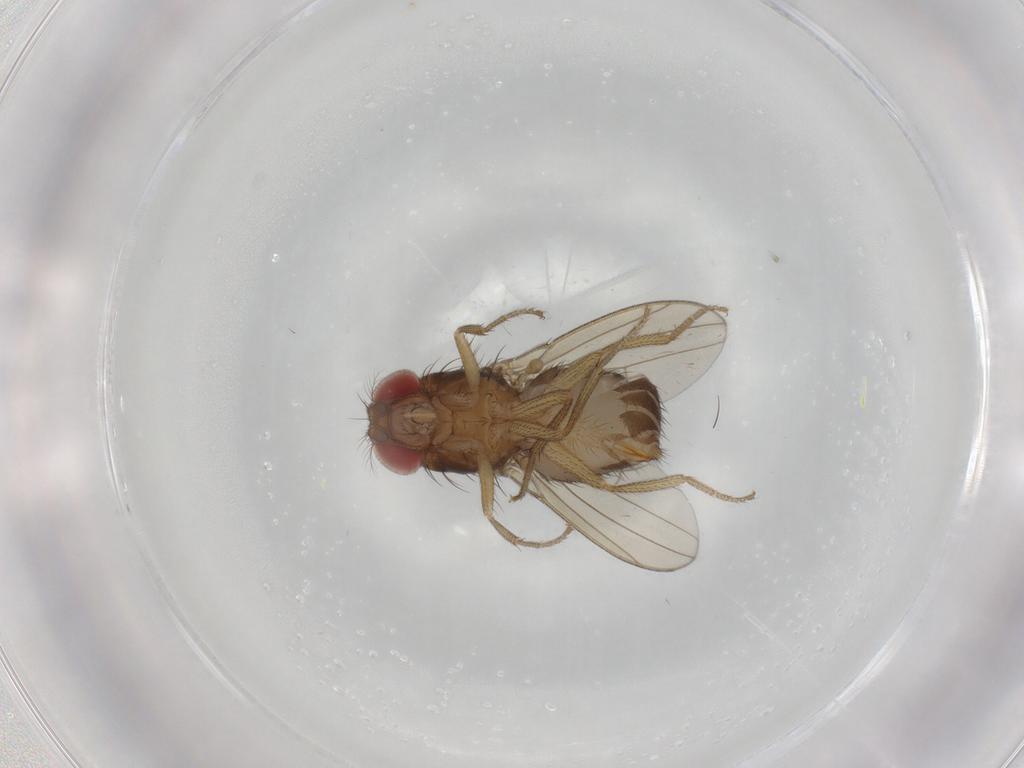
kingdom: Animalia
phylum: Arthropoda
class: Insecta
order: Diptera
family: Drosophilidae
